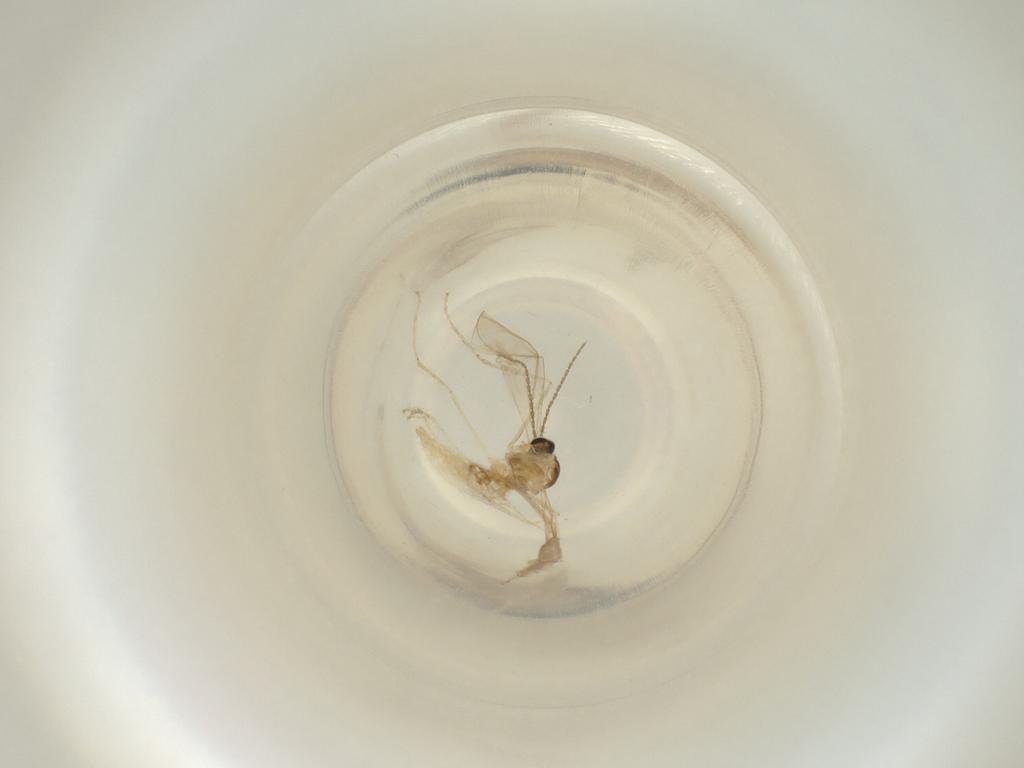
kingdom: Animalia
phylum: Arthropoda
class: Insecta
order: Diptera
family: Cecidomyiidae
